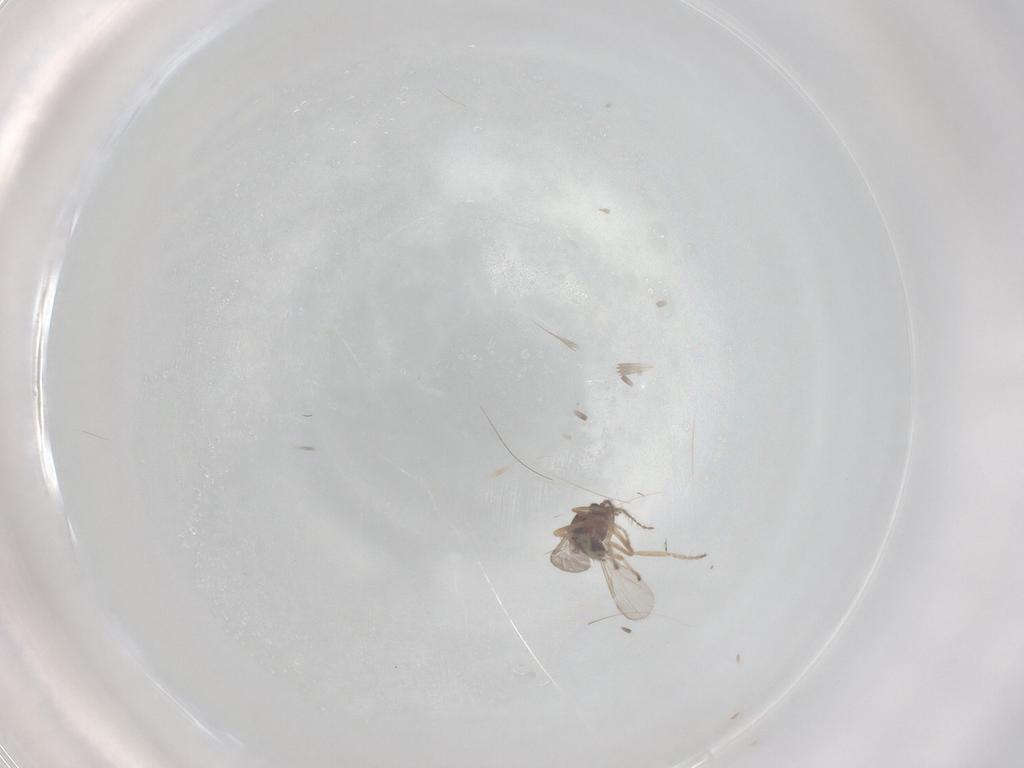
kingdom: Animalia
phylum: Arthropoda
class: Insecta
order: Diptera
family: Ceratopogonidae
